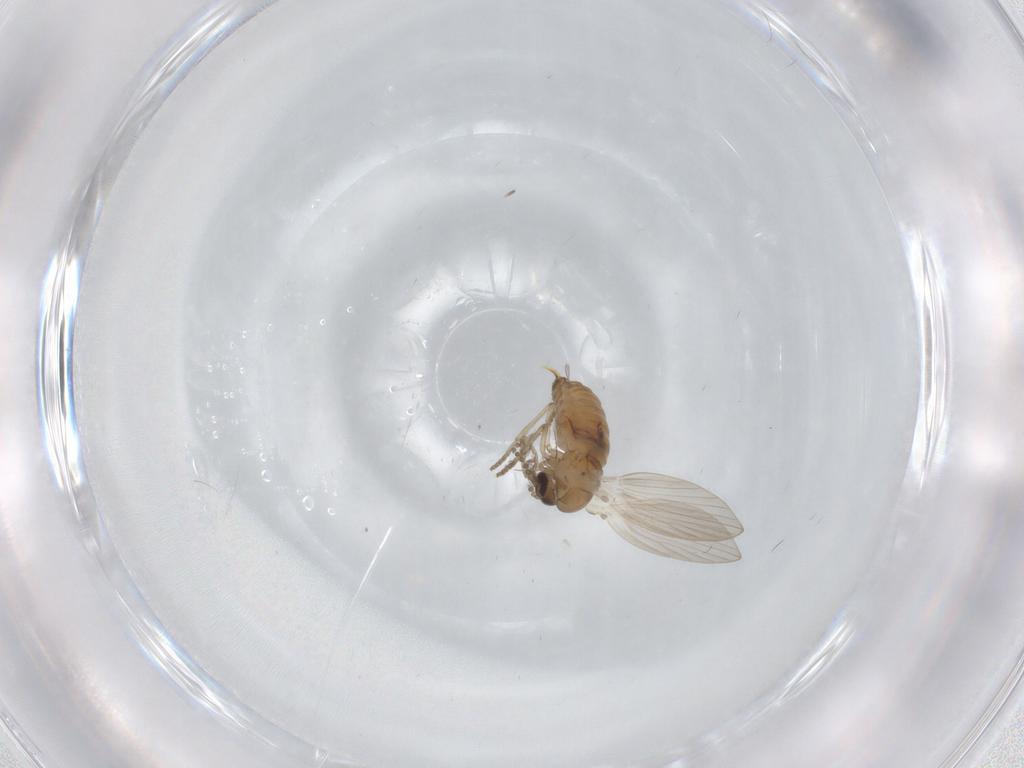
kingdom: Animalia
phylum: Arthropoda
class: Insecta
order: Diptera
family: Psychodidae
